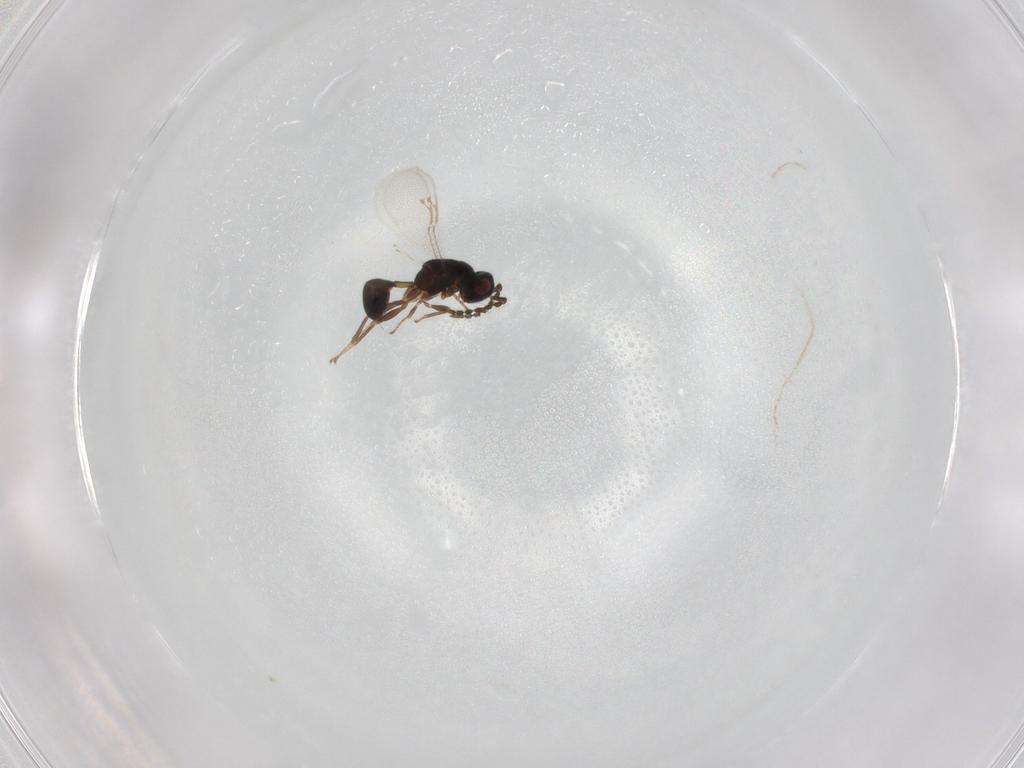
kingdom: Animalia
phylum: Arthropoda
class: Insecta
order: Hymenoptera
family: Eurytomidae
